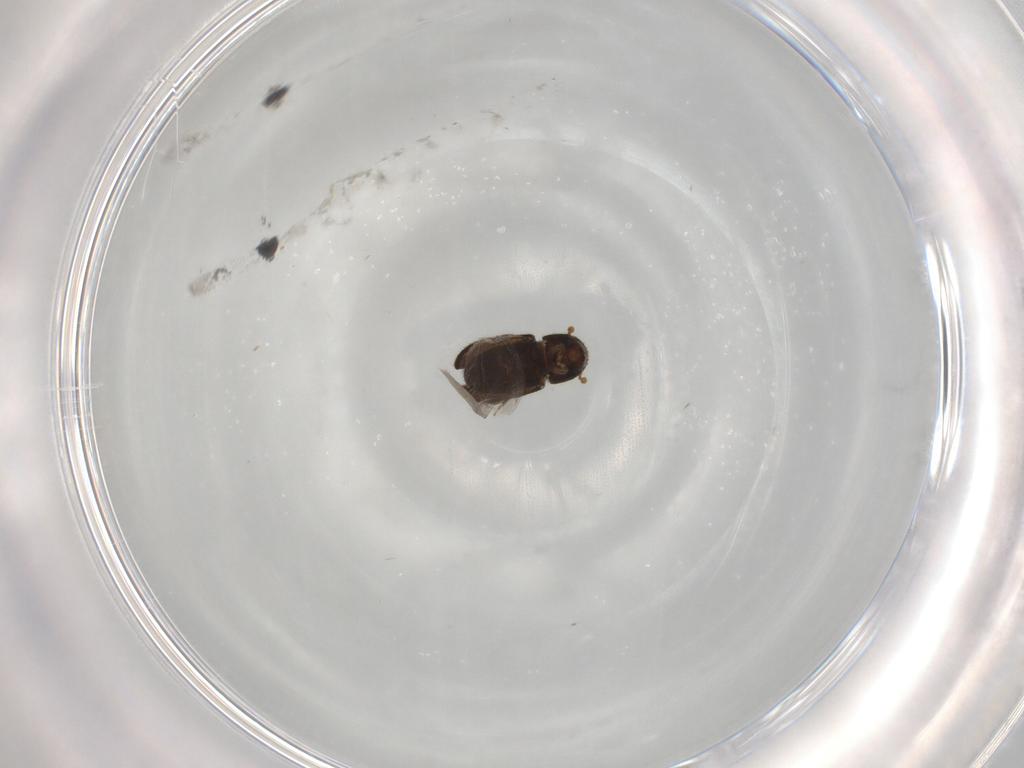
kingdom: Animalia
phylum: Arthropoda
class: Insecta
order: Coleoptera
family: Curculionidae
